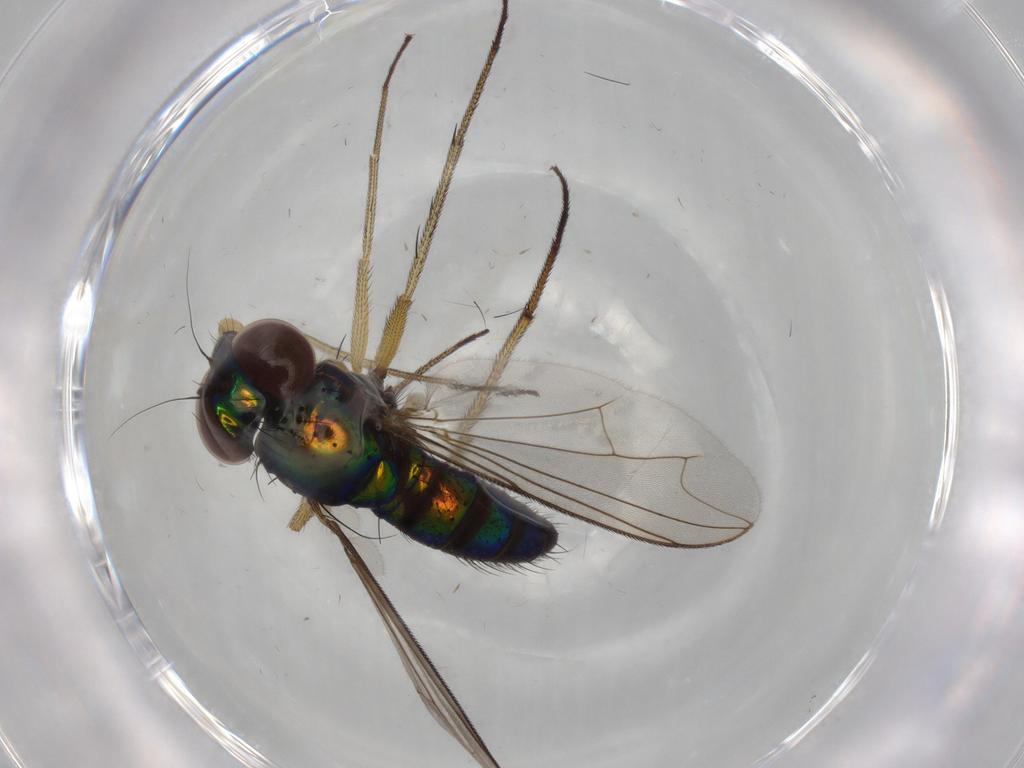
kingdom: Animalia
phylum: Arthropoda
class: Insecta
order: Diptera
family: Dolichopodidae
